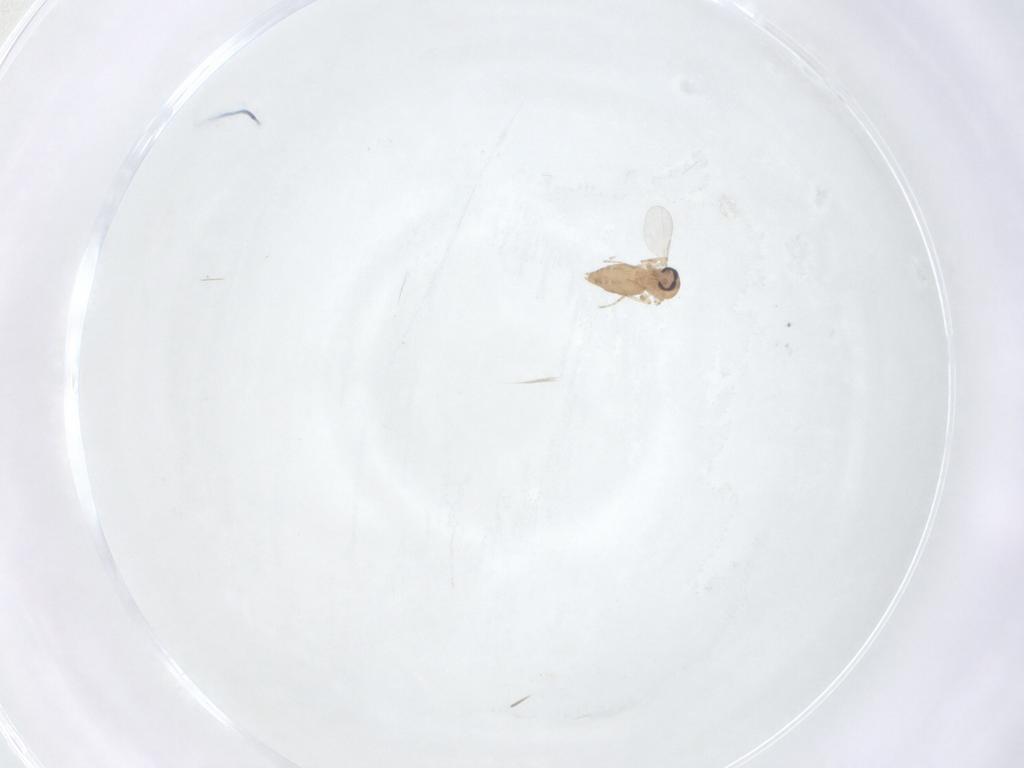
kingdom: Animalia
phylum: Arthropoda
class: Insecta
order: Diptera
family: Ceratopogonidae
